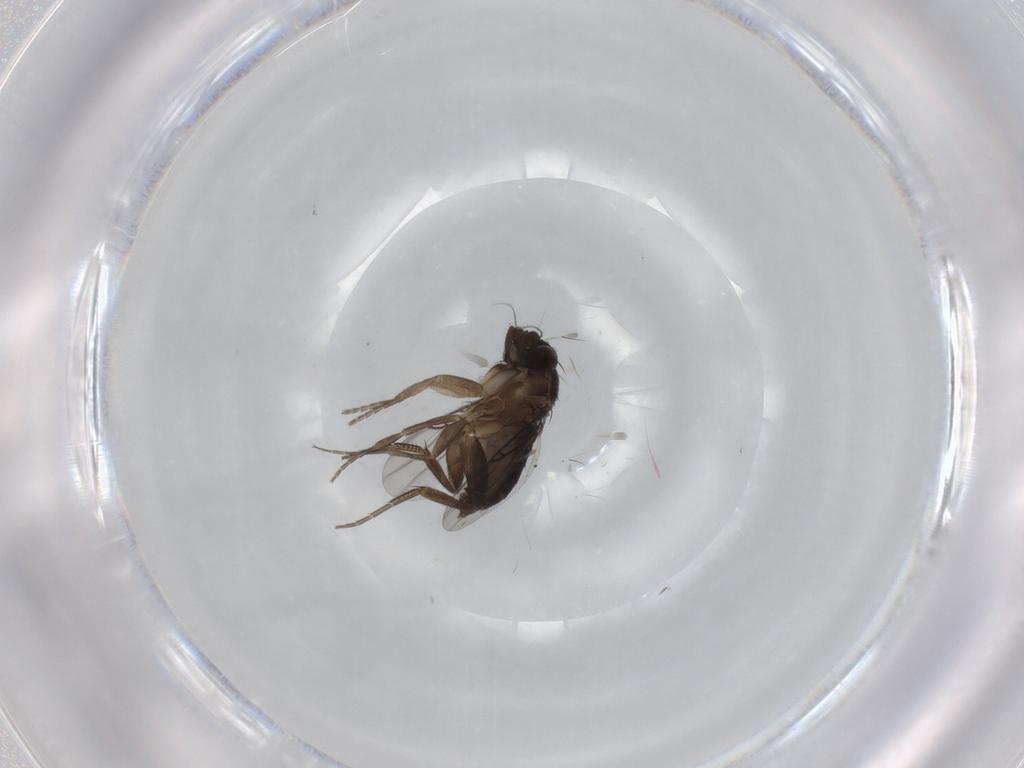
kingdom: Animalia
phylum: Arthropoda
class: Insecta
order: Diptera
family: Phoridae
